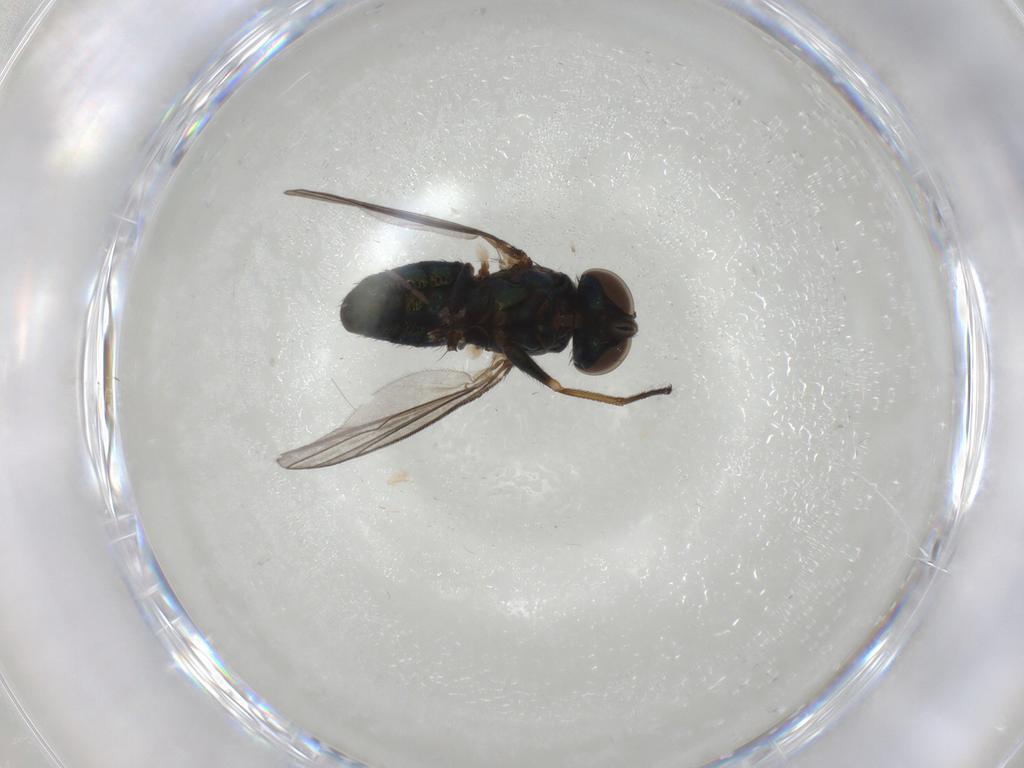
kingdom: Animalia
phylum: Arthropoda
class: Insecta
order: Diptera
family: Dolichopodidae
